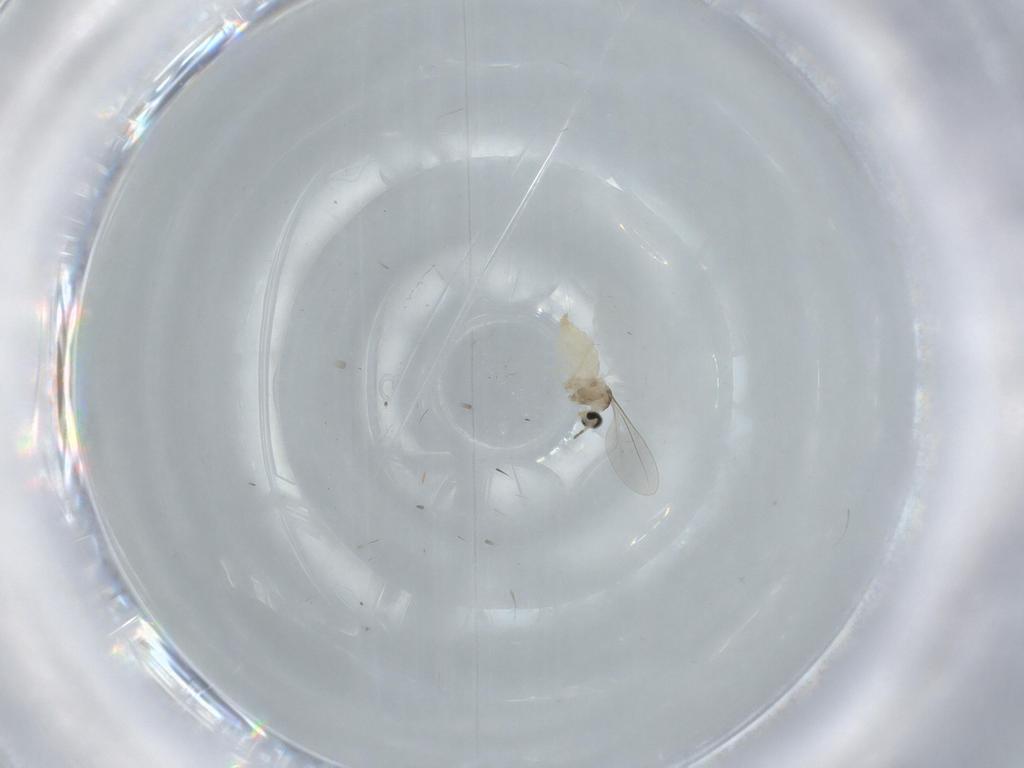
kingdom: Animalia
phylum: Arthropoda
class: Insecta
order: Diptera
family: Cecidomyiidae
